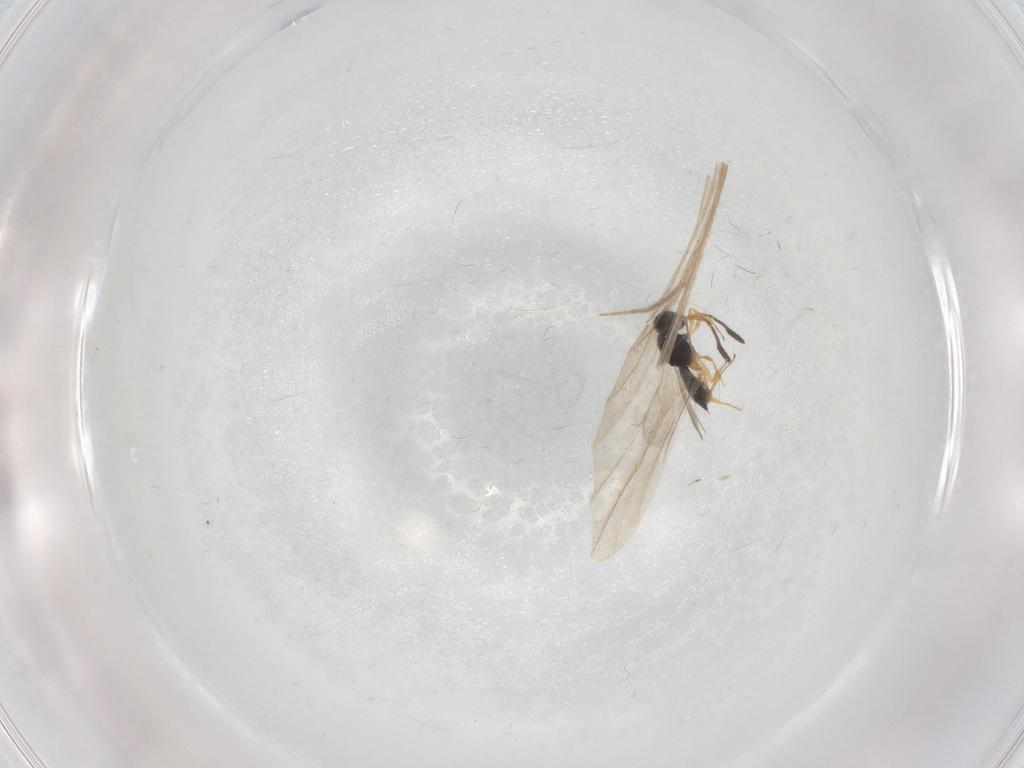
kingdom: Animalia
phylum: Arthropoda
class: Insecta
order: Hymenoptera
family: Scelionidae
